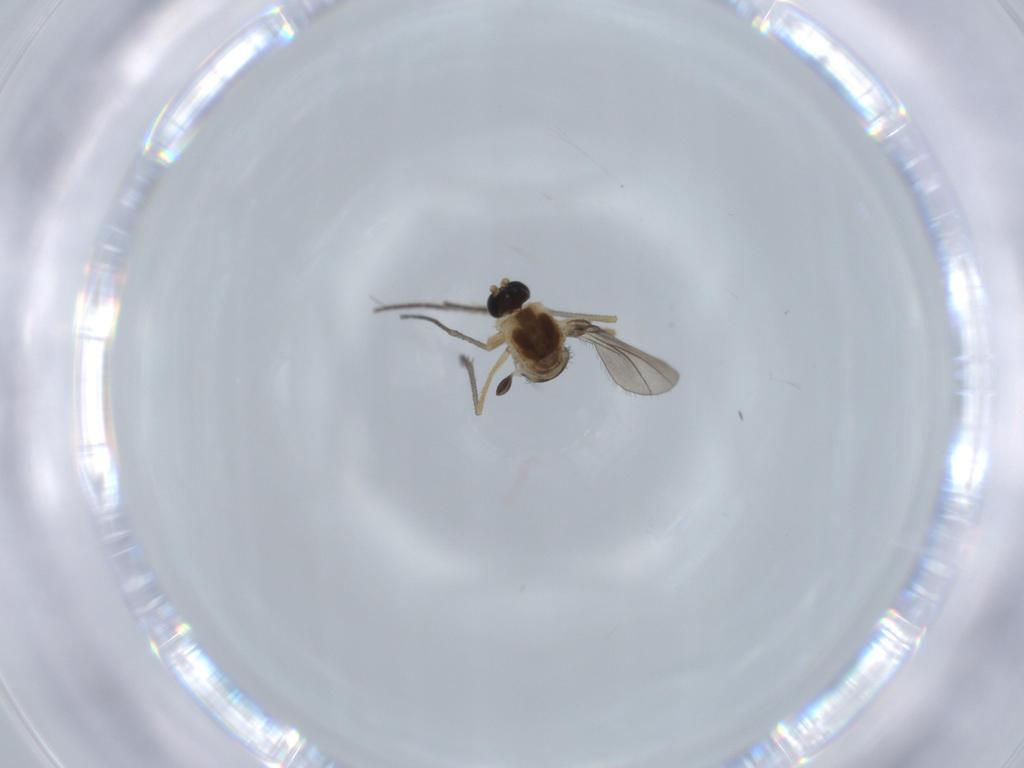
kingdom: Animalia
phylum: Arthropoda
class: Insecta
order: Diptera
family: Sciaridae
